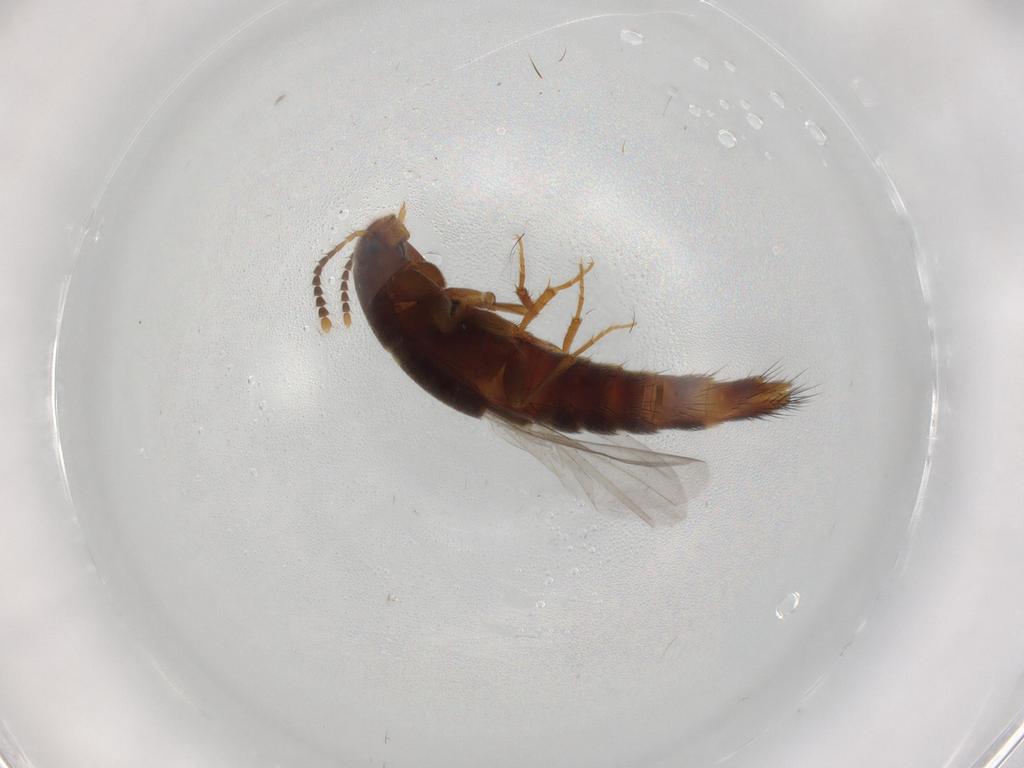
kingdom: Animalia
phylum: Arthropoda
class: Insecta
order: Coleoptera
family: Staphylinidae
